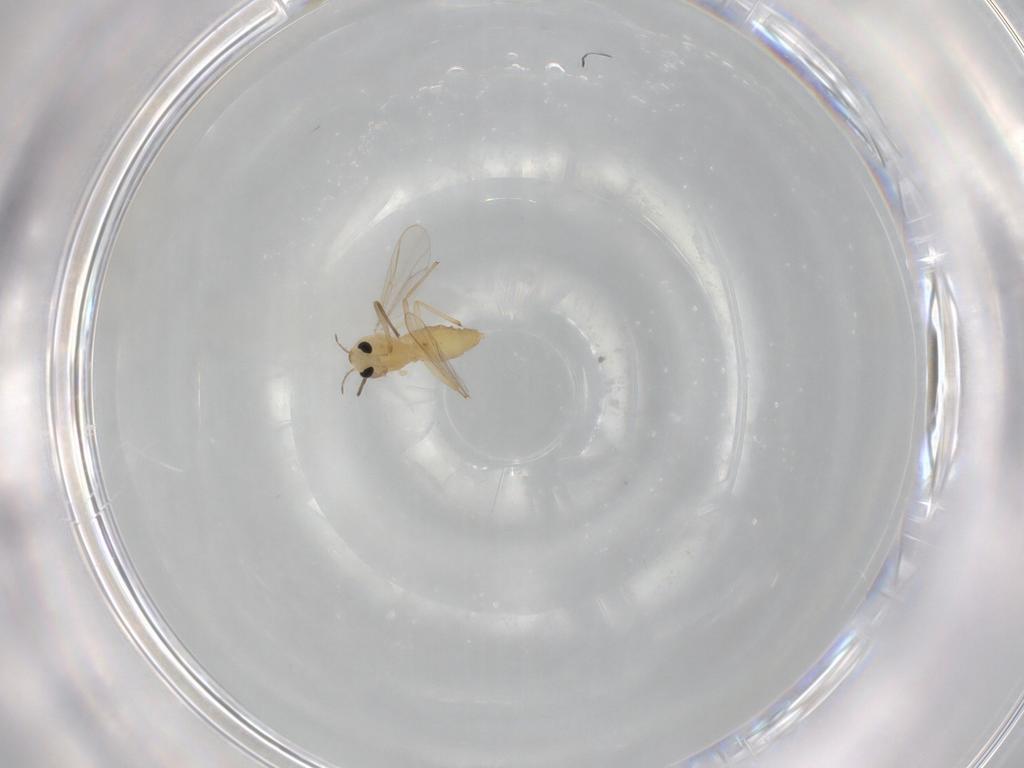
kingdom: Animalia
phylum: Arthropoda
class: Insecta
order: Diptera
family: Chironomidae
